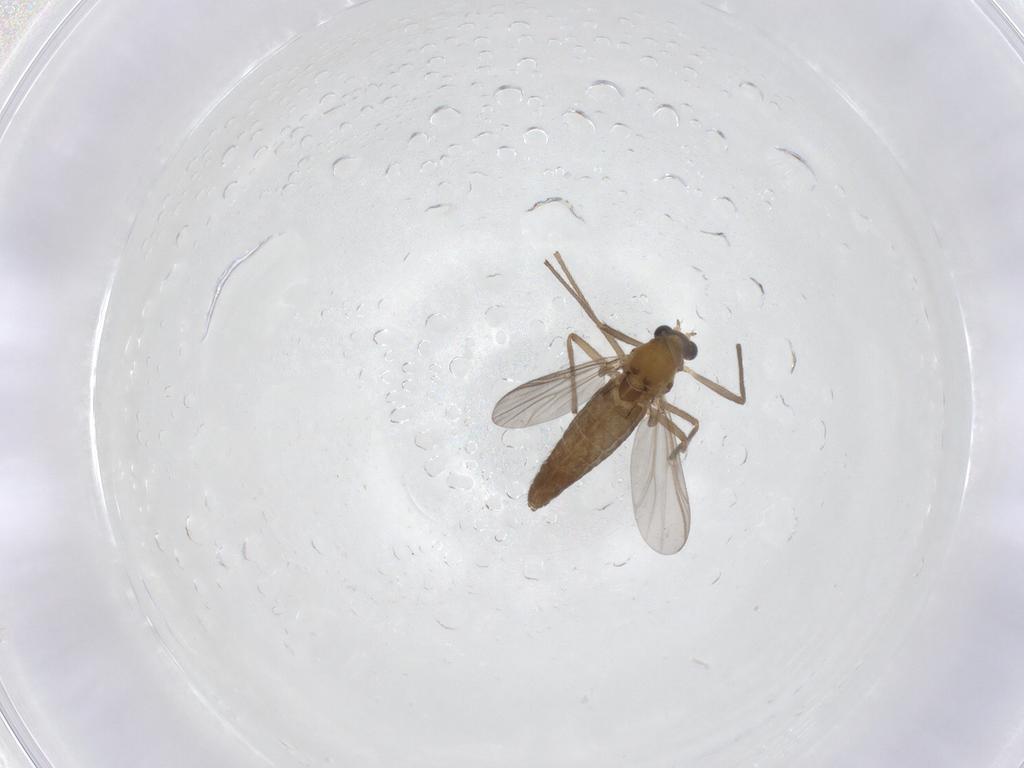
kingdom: Animalia
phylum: Arthropoda
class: Insecta
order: Diptera
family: Chironomidae
